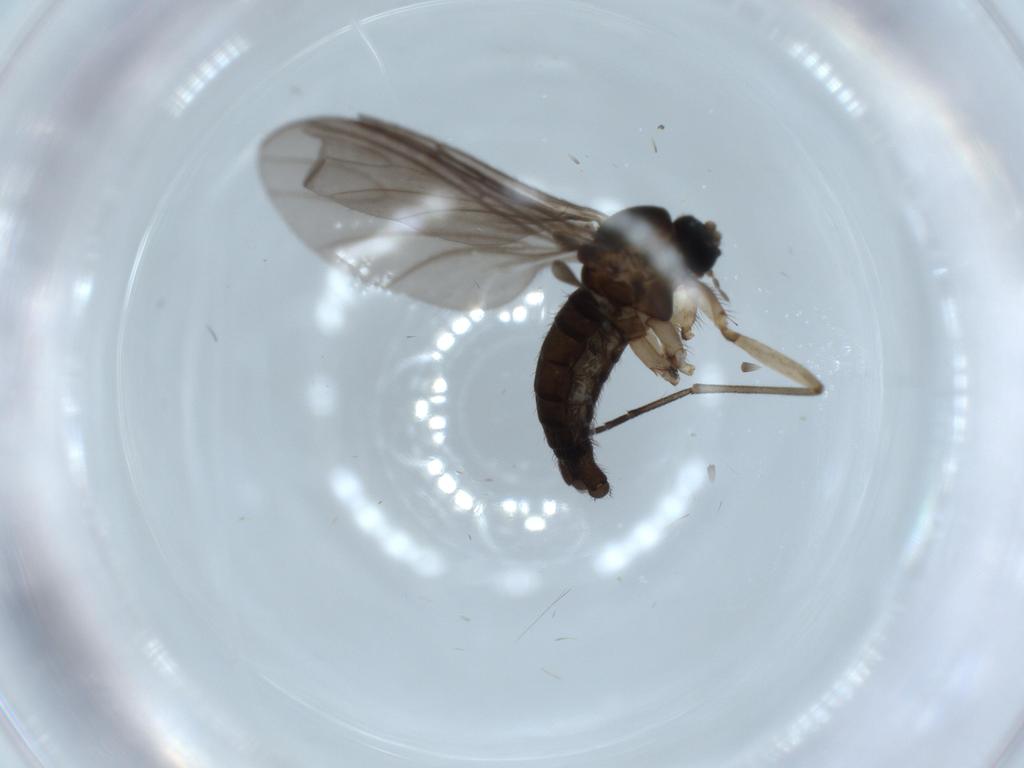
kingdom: Animalia
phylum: Arthropoda
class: Insecta
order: Diptera
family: Sciaridae
